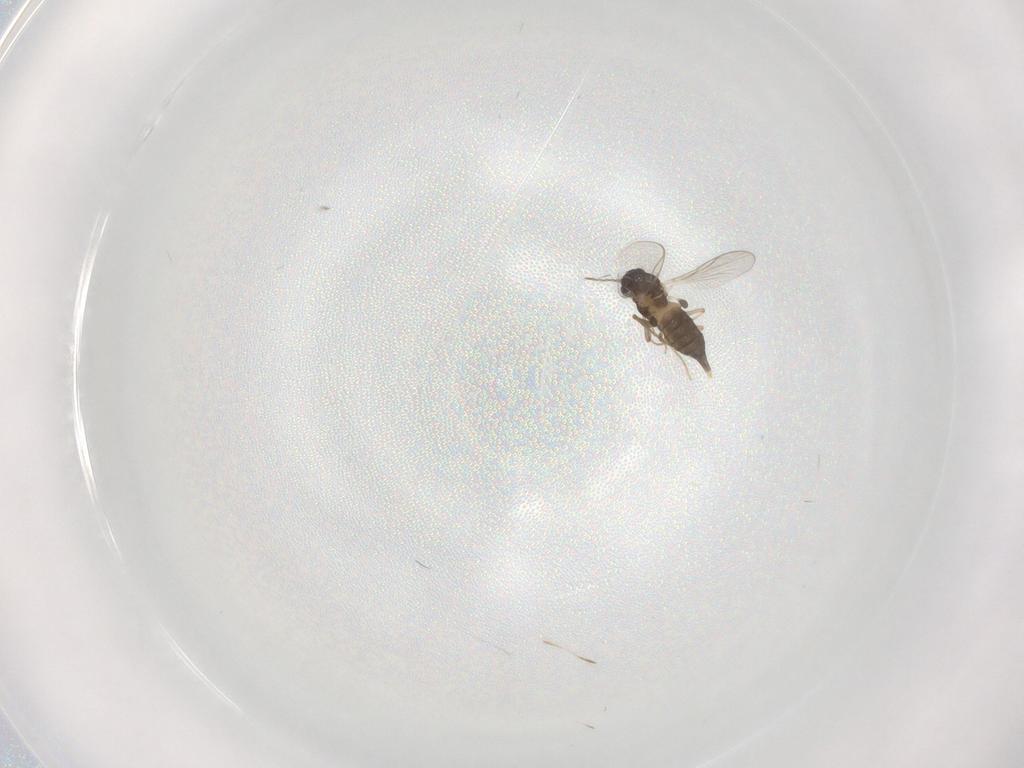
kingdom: Animalia
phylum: Arthropoda
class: Insecta
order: Diptera
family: Chironomidae
